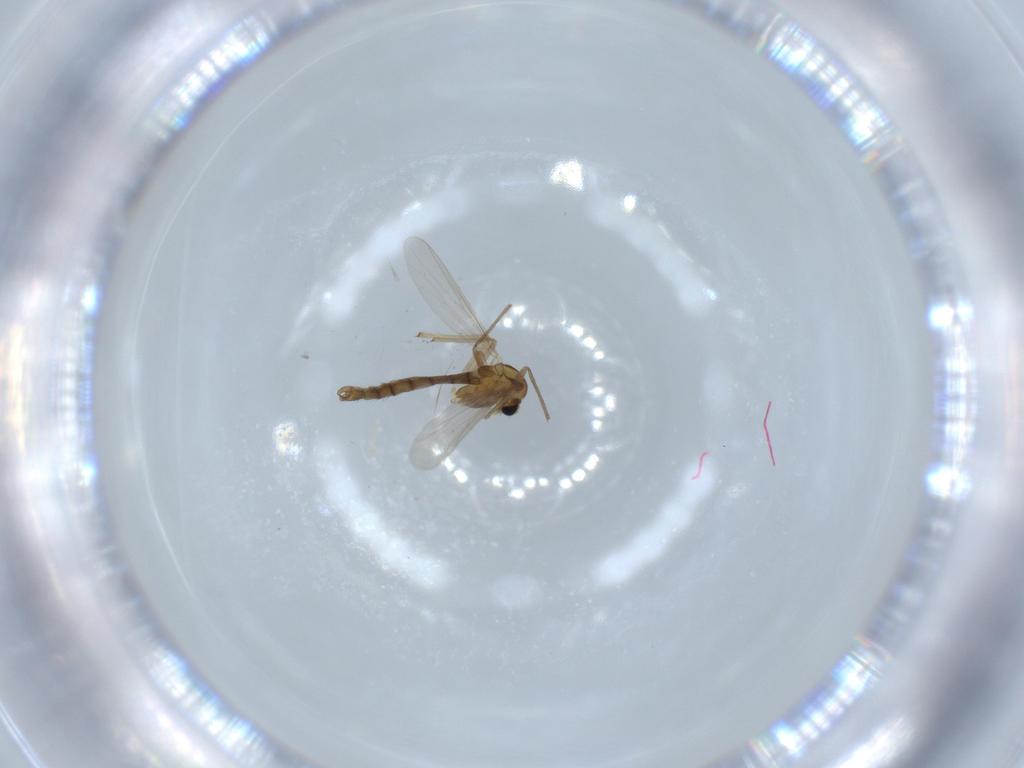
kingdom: Animalia
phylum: Arthropoda
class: Insecta
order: Diptera
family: Chironomidae
